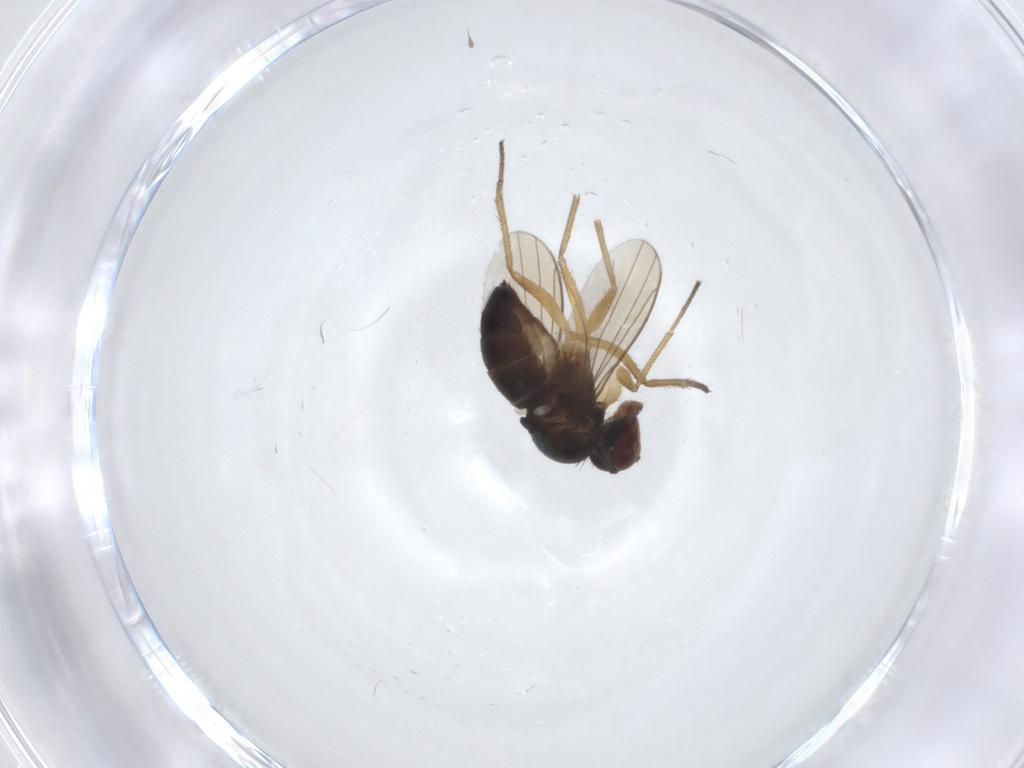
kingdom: Animalia
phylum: Arthropoda
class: Insecta
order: Diptera
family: Dolichopodidae
